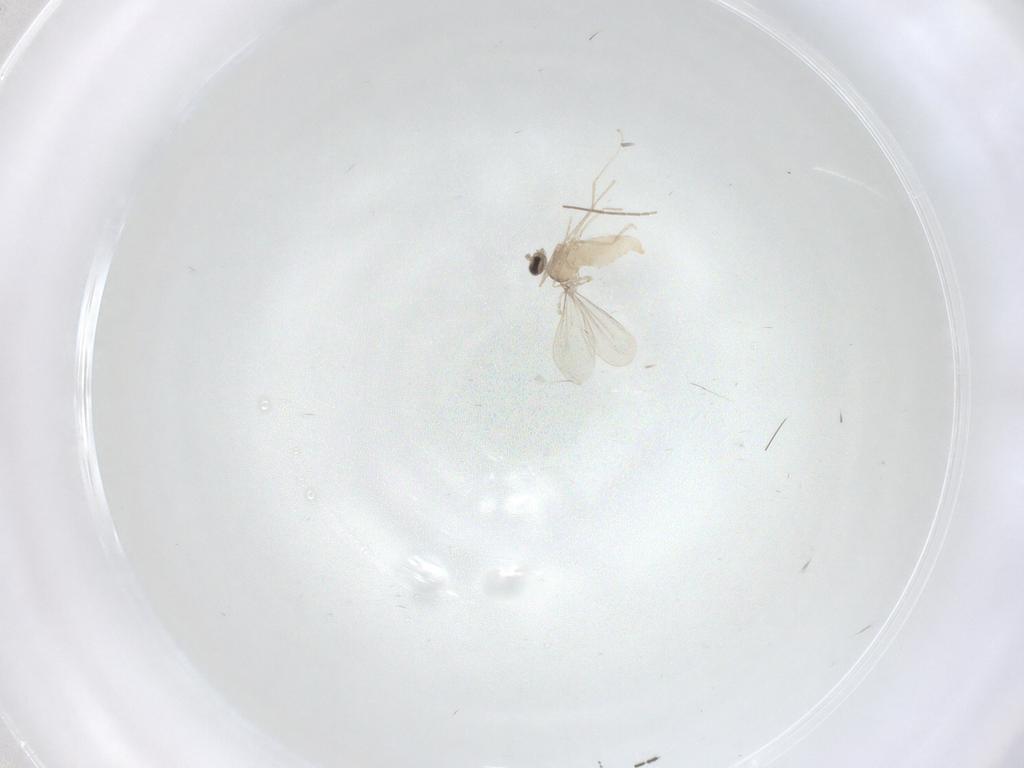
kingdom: Animalia
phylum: Arthropoda
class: Insecta
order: Diptera
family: Cecidomyiidae
